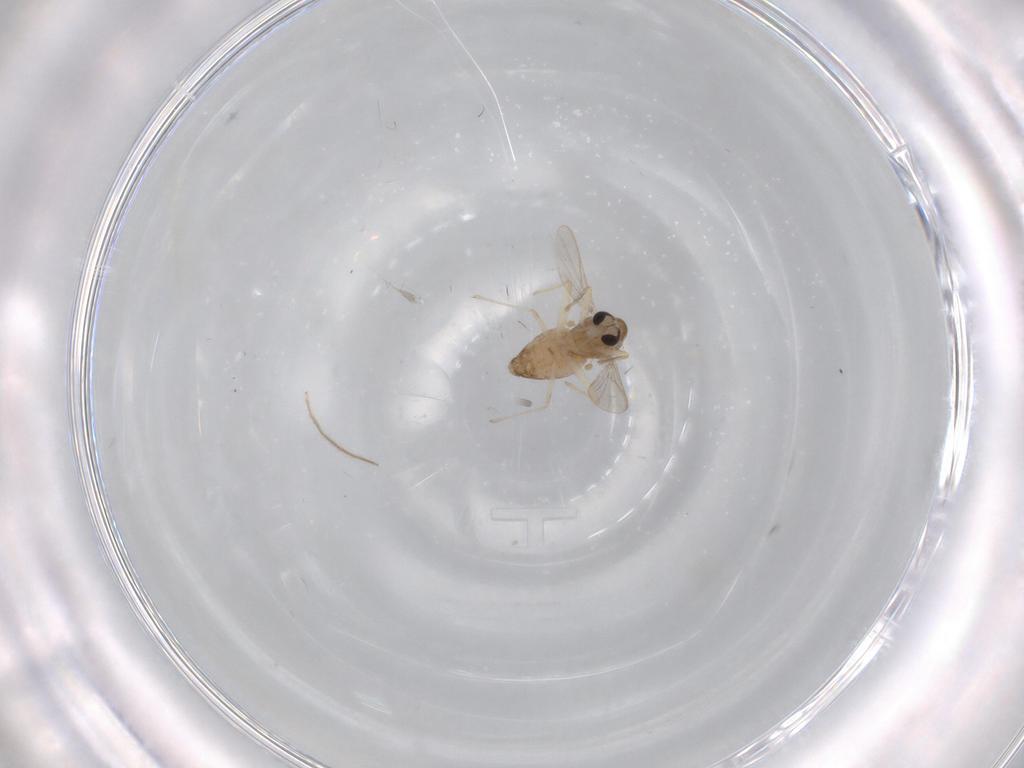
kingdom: Animalia
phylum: Arthropoda
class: Insecta
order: Diptera
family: Chironomidae
